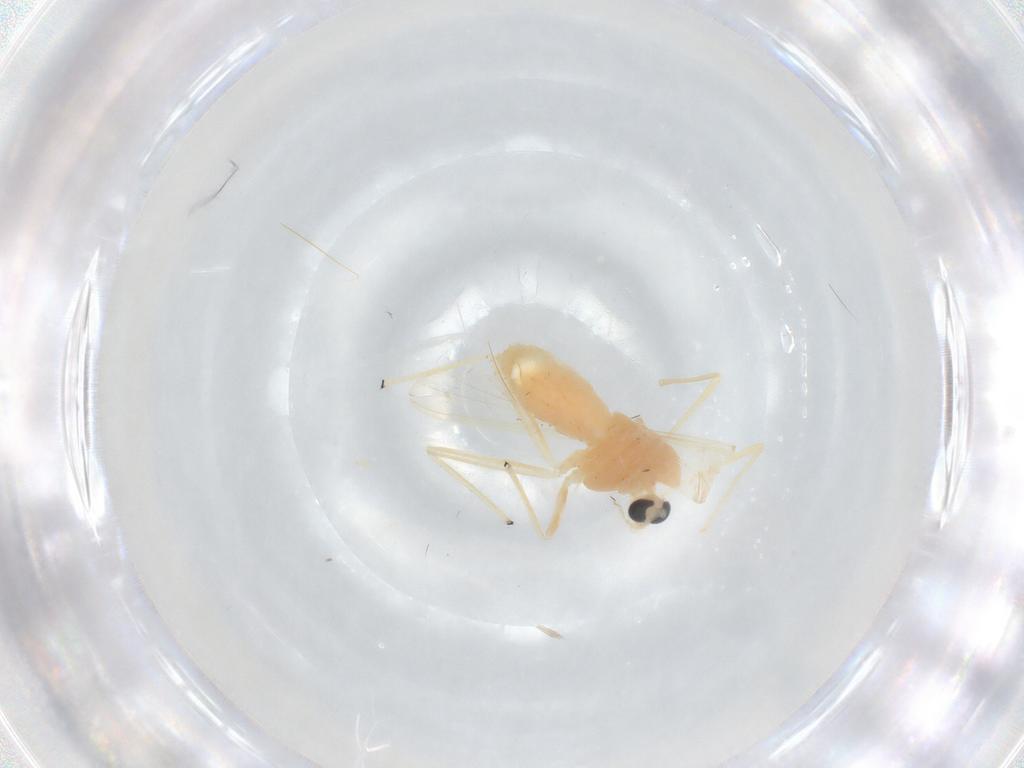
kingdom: Animalia
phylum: Arthropoda
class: Insecta
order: Diptera
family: Chironomidae
